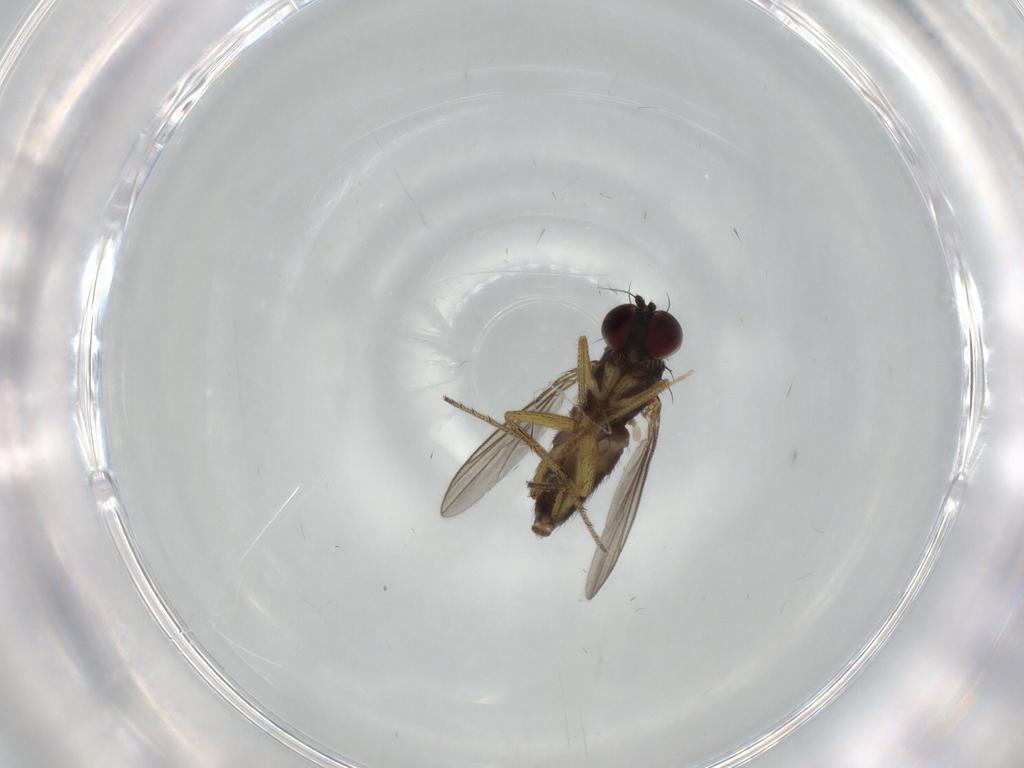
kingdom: Animalia
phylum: Arthropoda
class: Insecta
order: Diptera
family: Dolichopodidae
